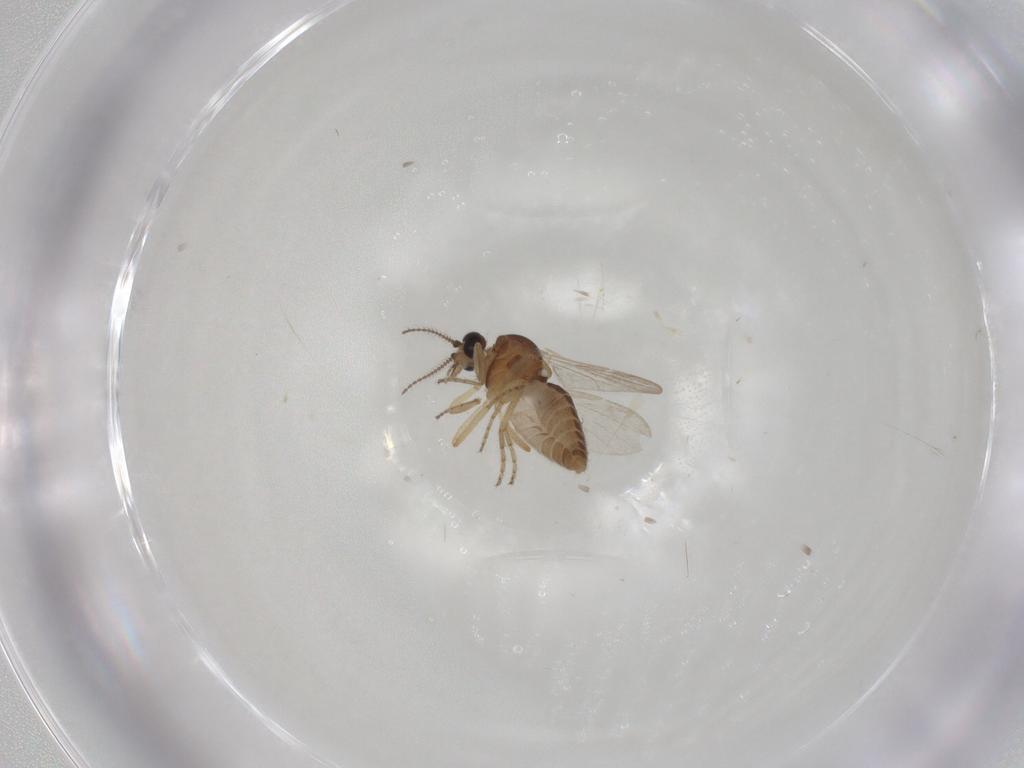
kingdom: Animalia
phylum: Arthropoda
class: Insecta
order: Diptera
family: Ceratopogonidae
